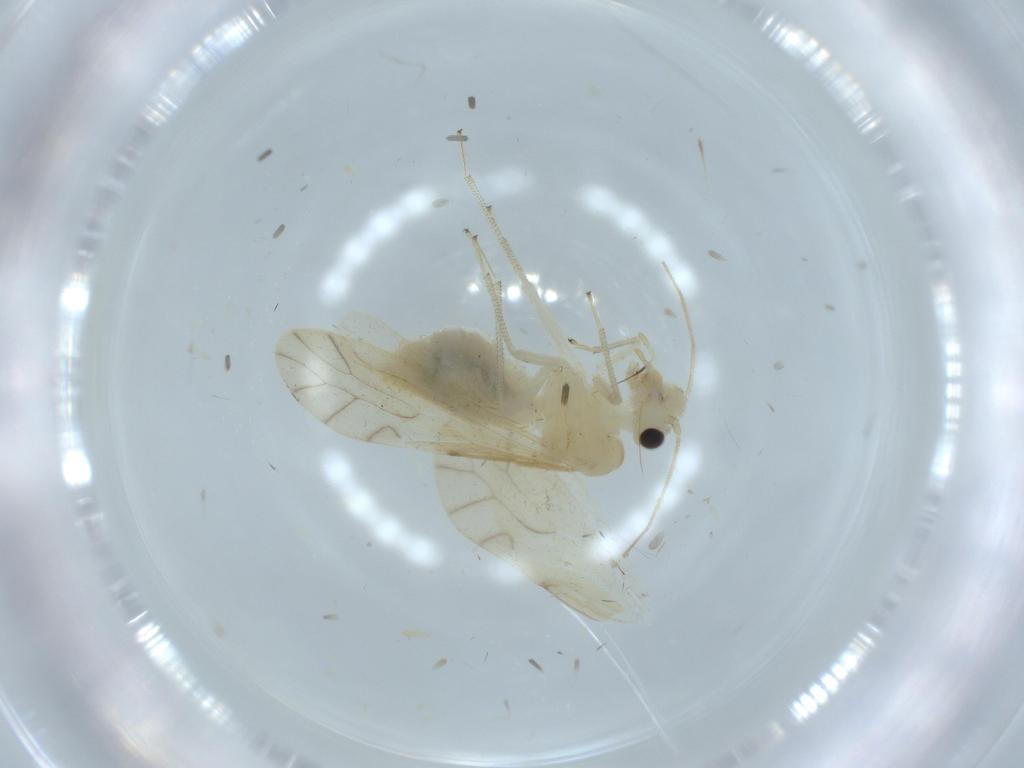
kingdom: Animalia
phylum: Arthropoda
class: Insecta
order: Psocodea
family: Caeciliusidae
